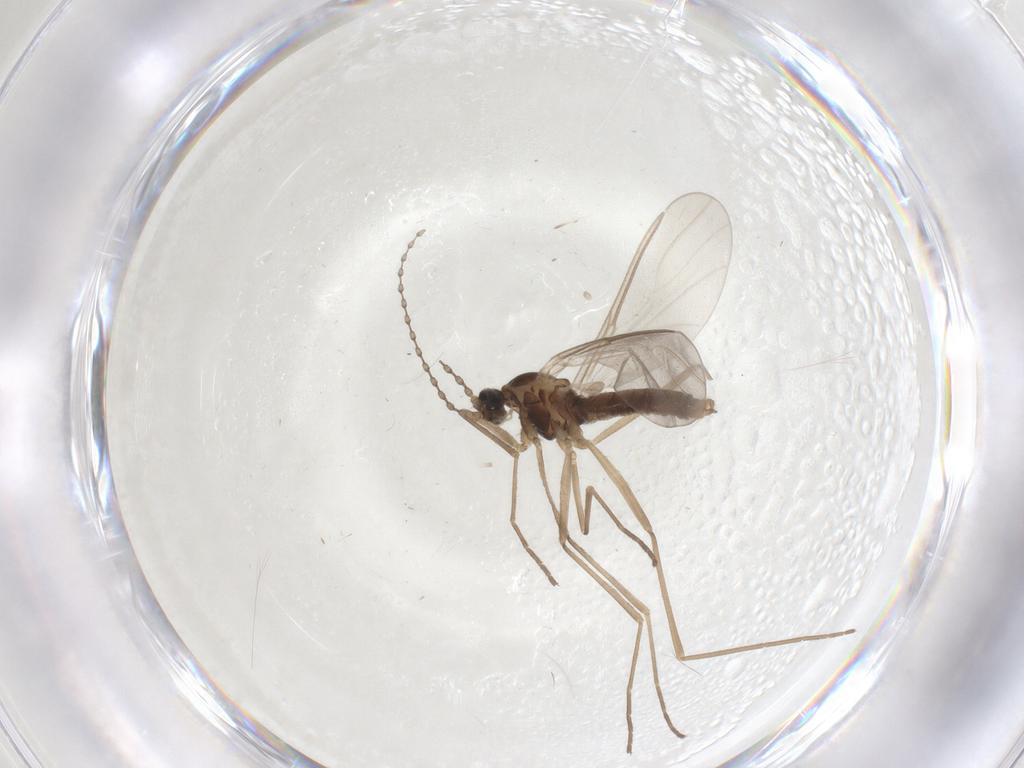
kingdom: Animalia
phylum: Arthropoda
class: Insecta
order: Diptera
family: Cecidomyiidae
